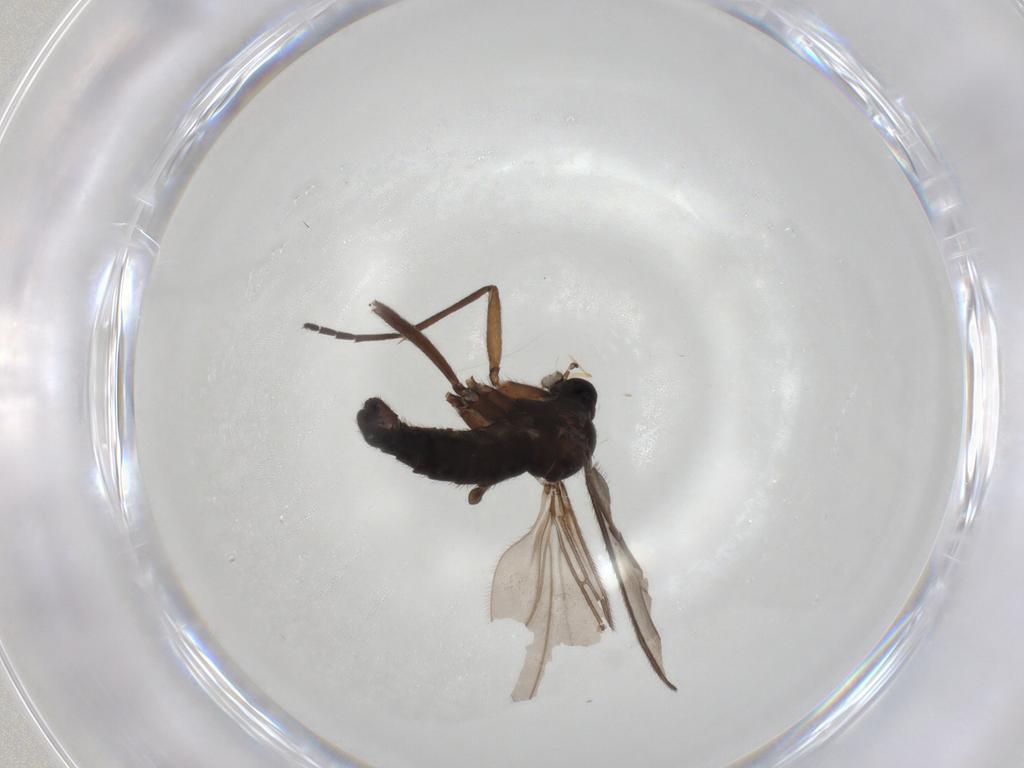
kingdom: Animalia
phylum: Arthropoda
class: Insecta
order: Diptera
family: Sciaridae
